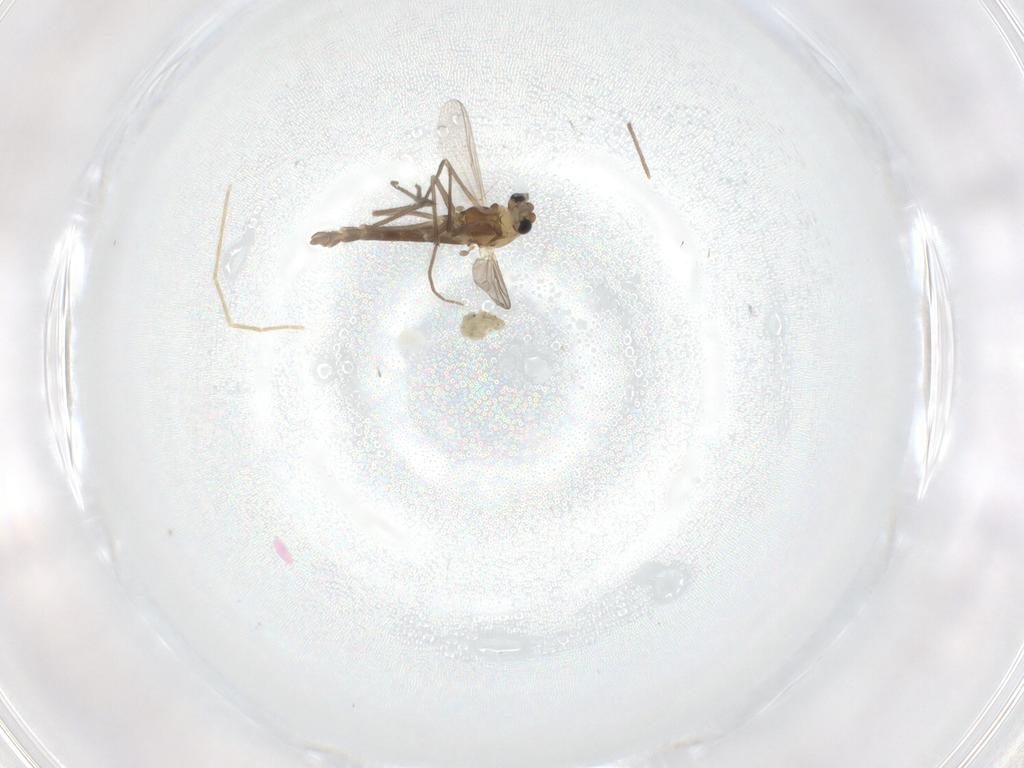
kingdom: Animalia
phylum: Arthropoda
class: Insecta
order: Diptera
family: Chironomidae
